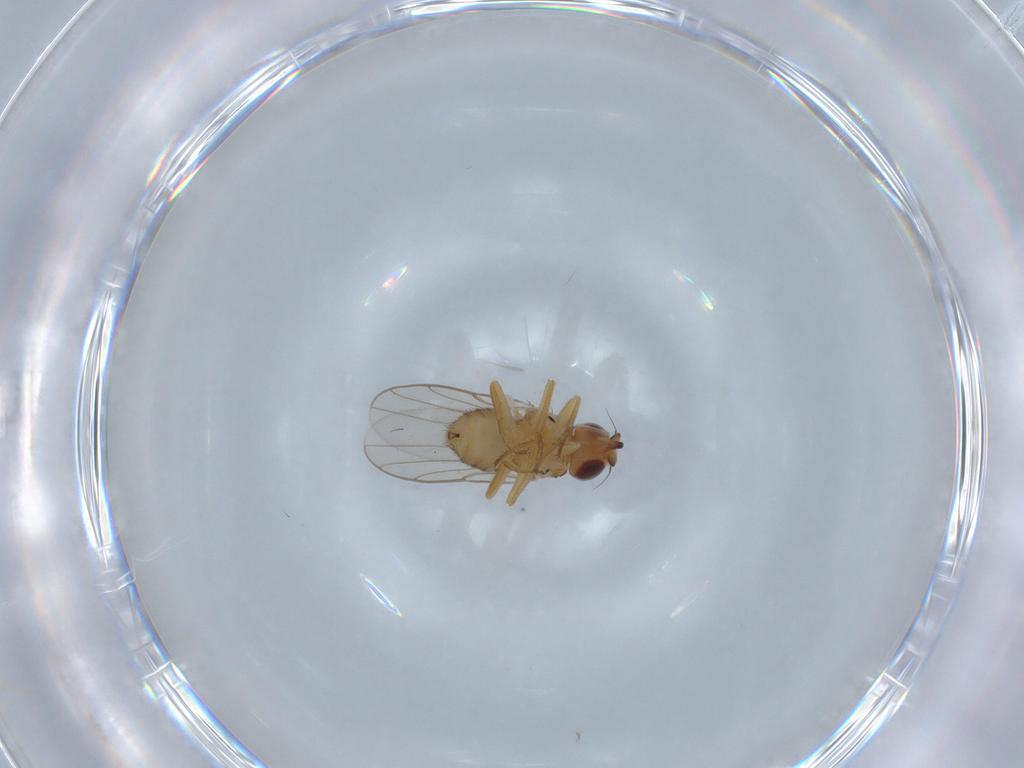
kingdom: Animalia
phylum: Arthropoda
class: Insecta
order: Diptera
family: Chloropidae
